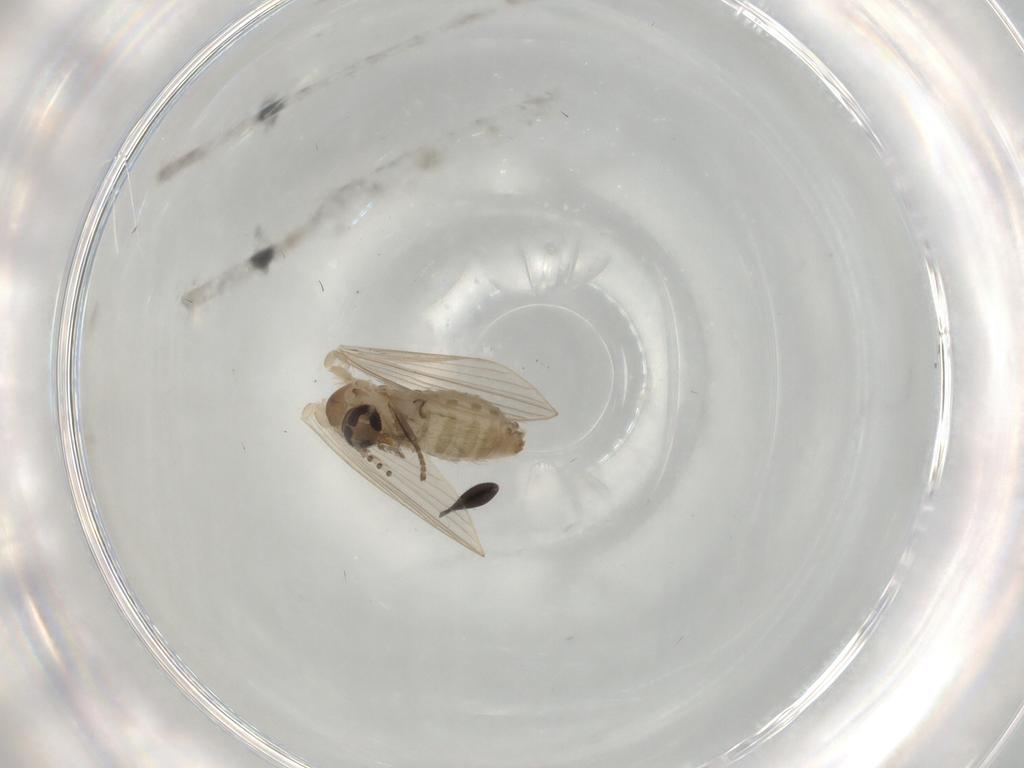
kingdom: Animalia
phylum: Arthropoda
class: Insecta
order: Diptera
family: Psychodidae
